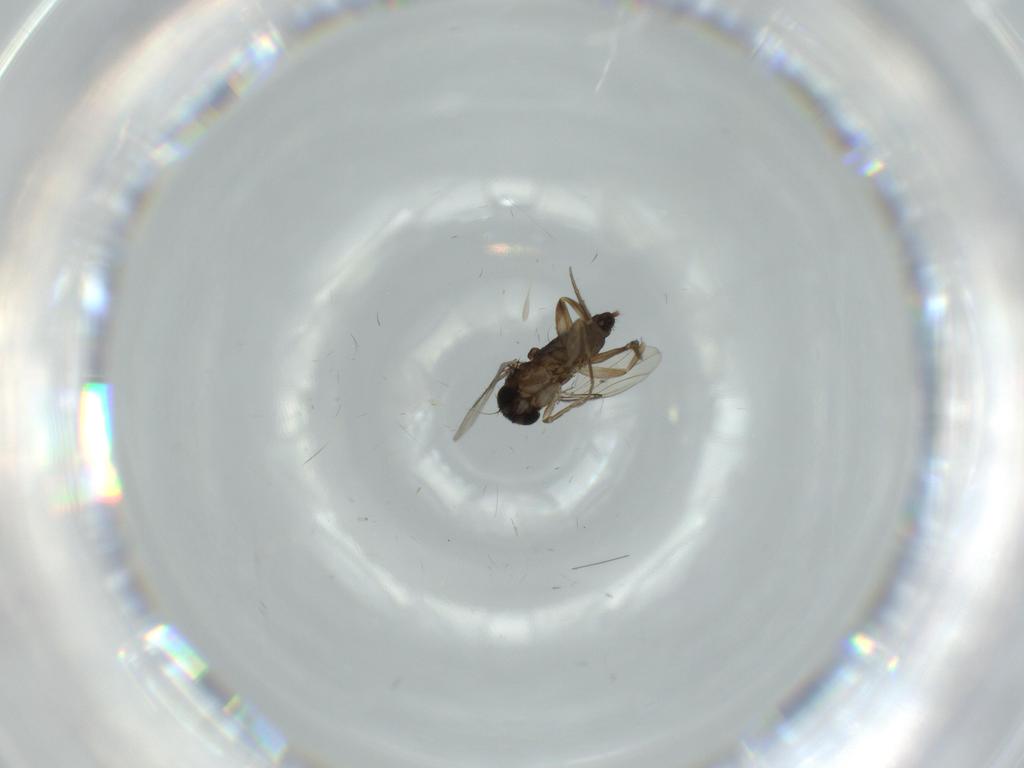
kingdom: Animalia
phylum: Arthropoda
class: Insecta
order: Diptera
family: Phoridae
